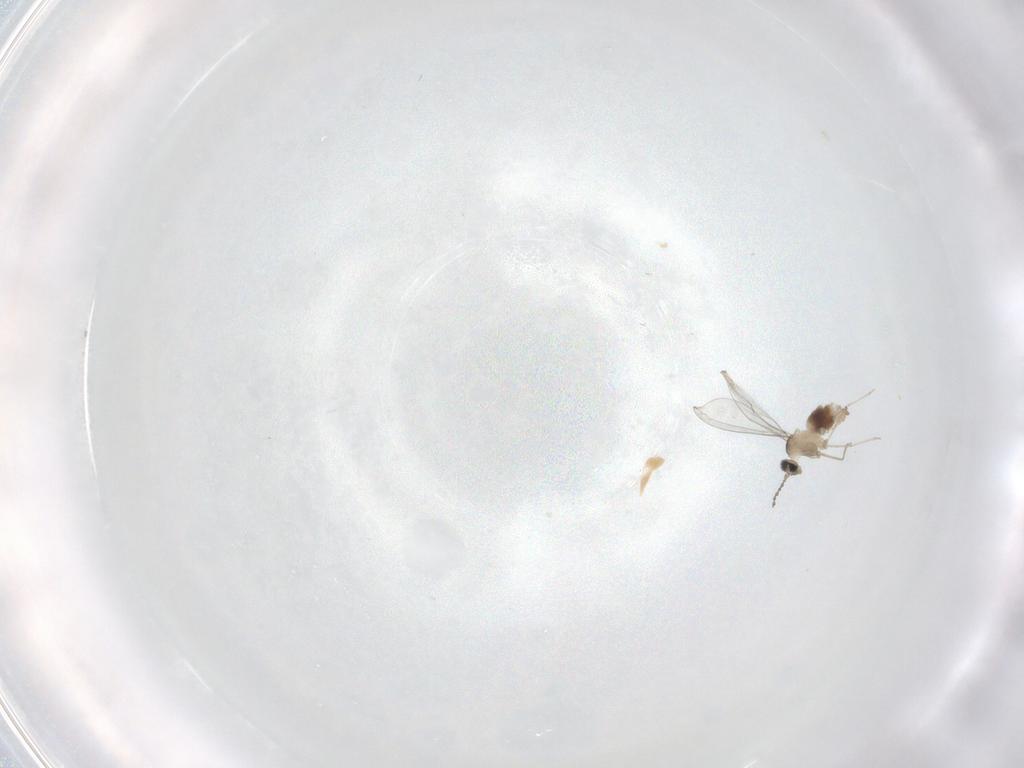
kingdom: Animalia
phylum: Arthropoda
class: Insecta
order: Diptera
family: Cecidomyiidae
